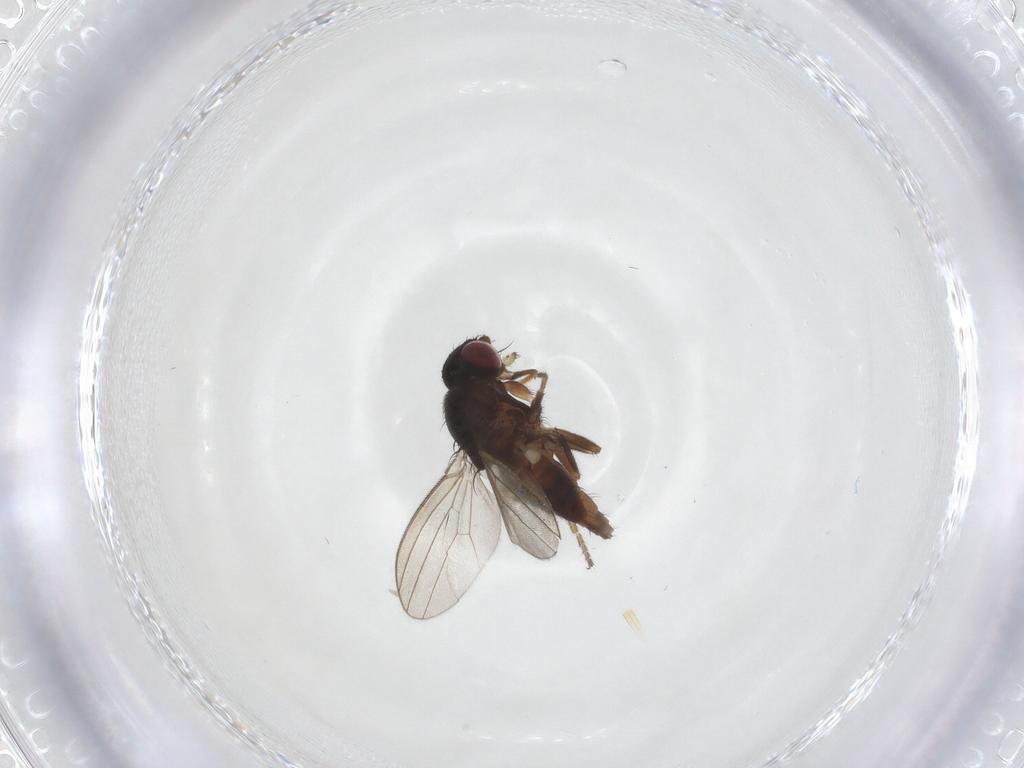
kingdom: Animalia
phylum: Arthropoda
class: Insecta
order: Diptera
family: Milichiidae
